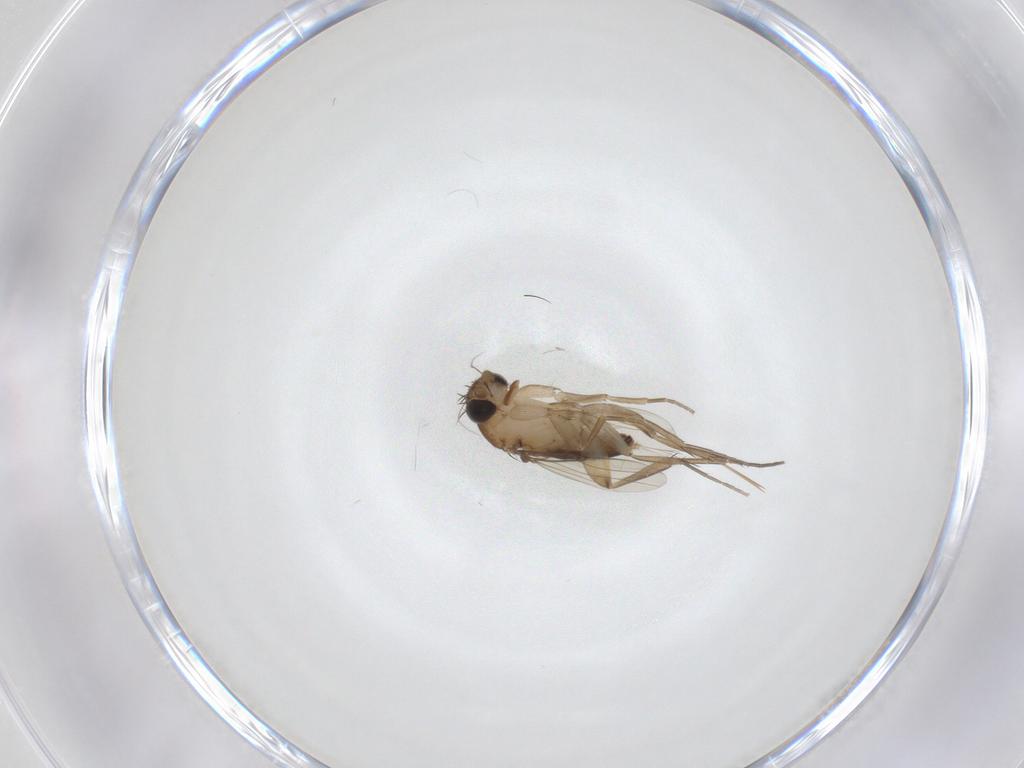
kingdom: Animalia
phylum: Arthropoda
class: Insecta
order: Diptera
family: Phoridae
